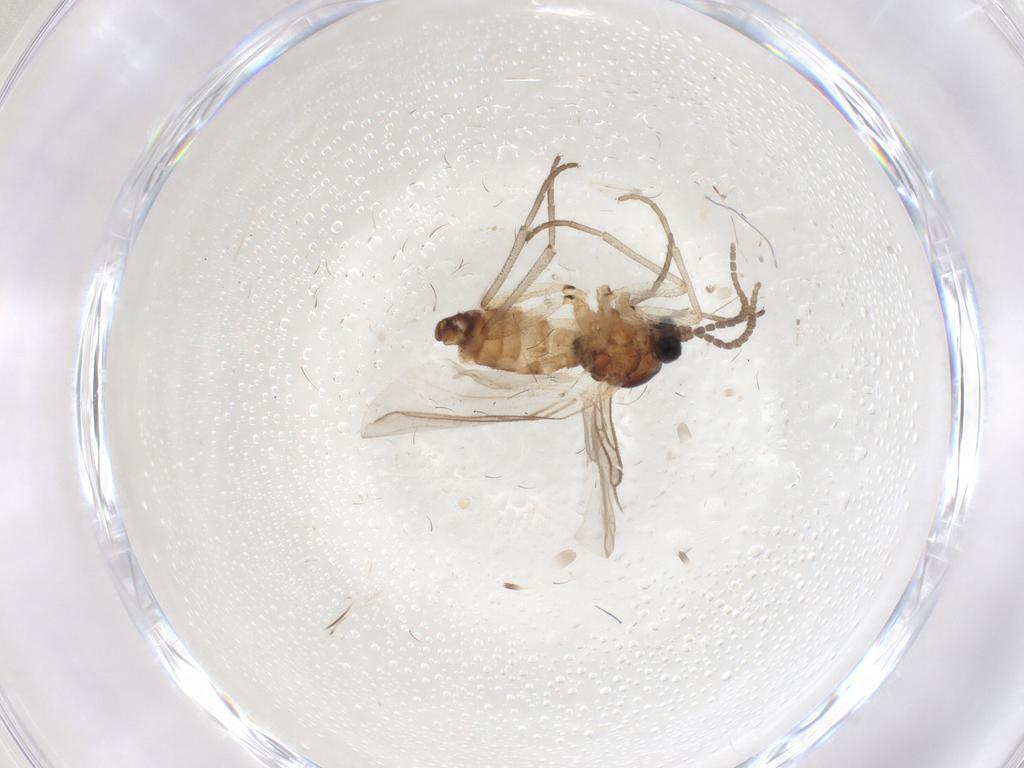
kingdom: Animalia
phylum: Arthropoda
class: Insecta
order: Diptera
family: Sciaridae
